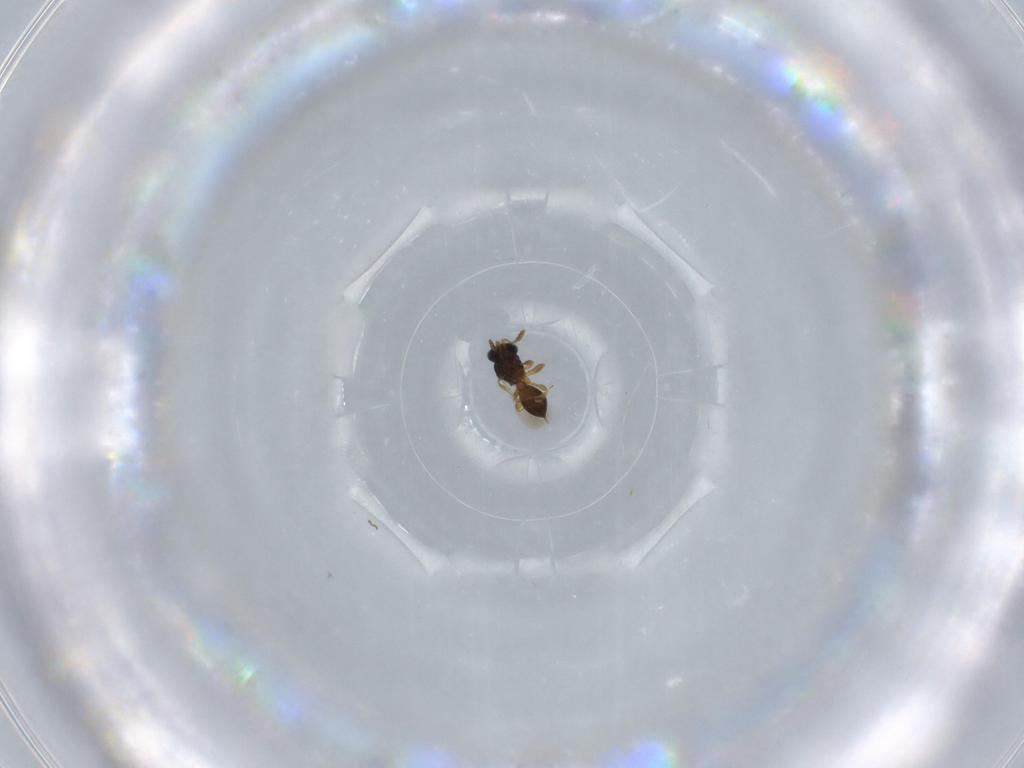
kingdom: Animalia
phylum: Arthropoda
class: Insecta
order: Hymenoptera
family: Platygastridae
